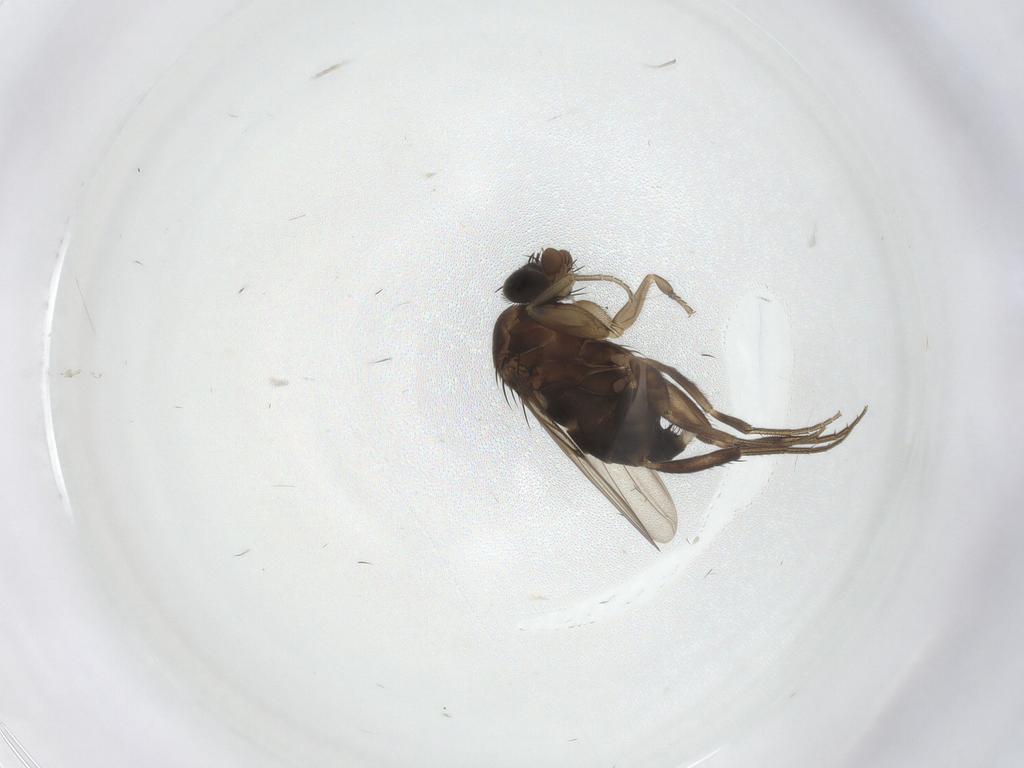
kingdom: Animalia
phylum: Arthropoda
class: Insecta
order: Diptera
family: Phoridae
